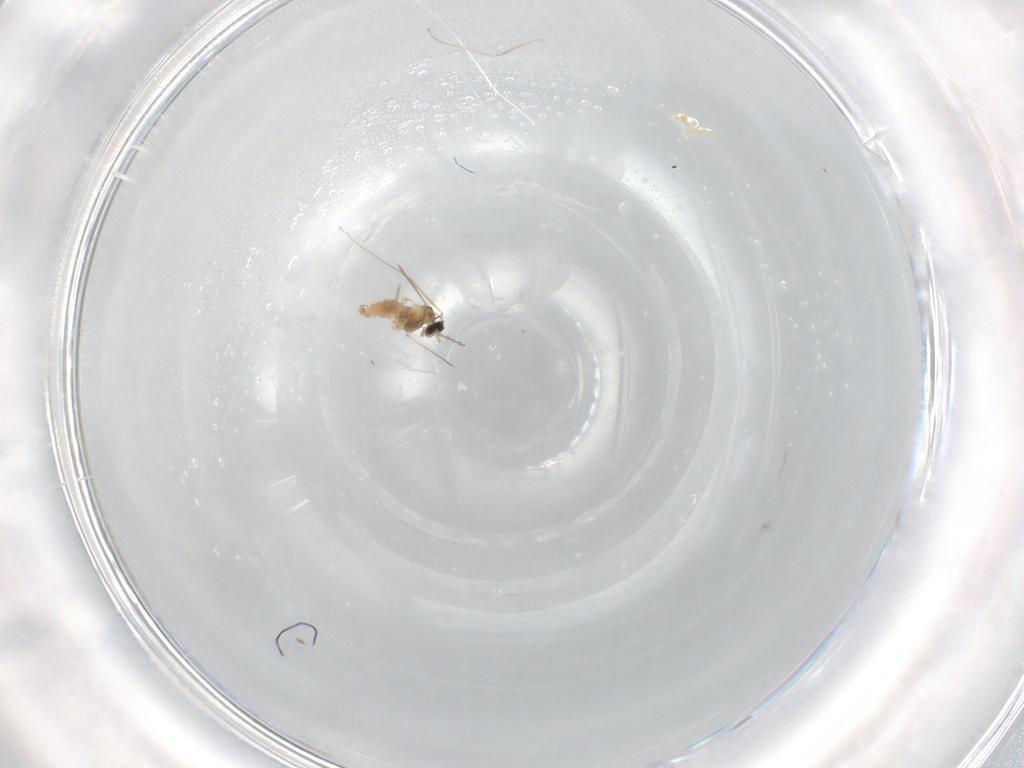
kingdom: Animalia
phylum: Arthropoda
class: Insecta
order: Diptera
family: Cecidomyiidae
